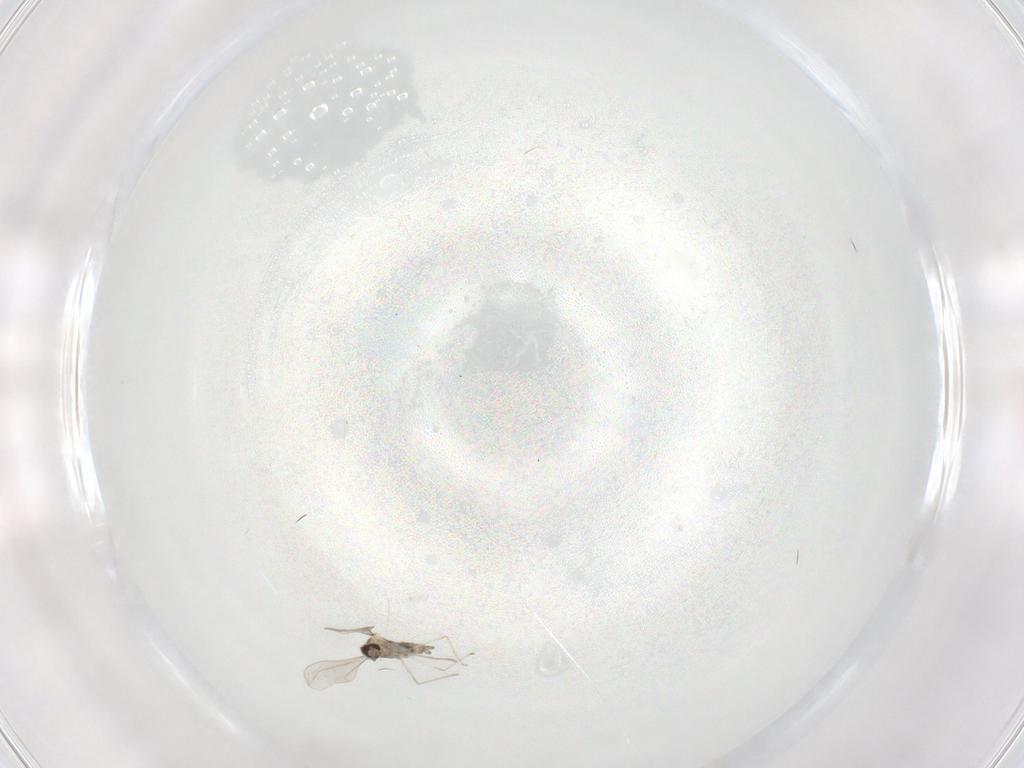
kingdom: Animalia
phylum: Arthropoda
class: Insecta
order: Diptera
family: Cecidomyiidae
